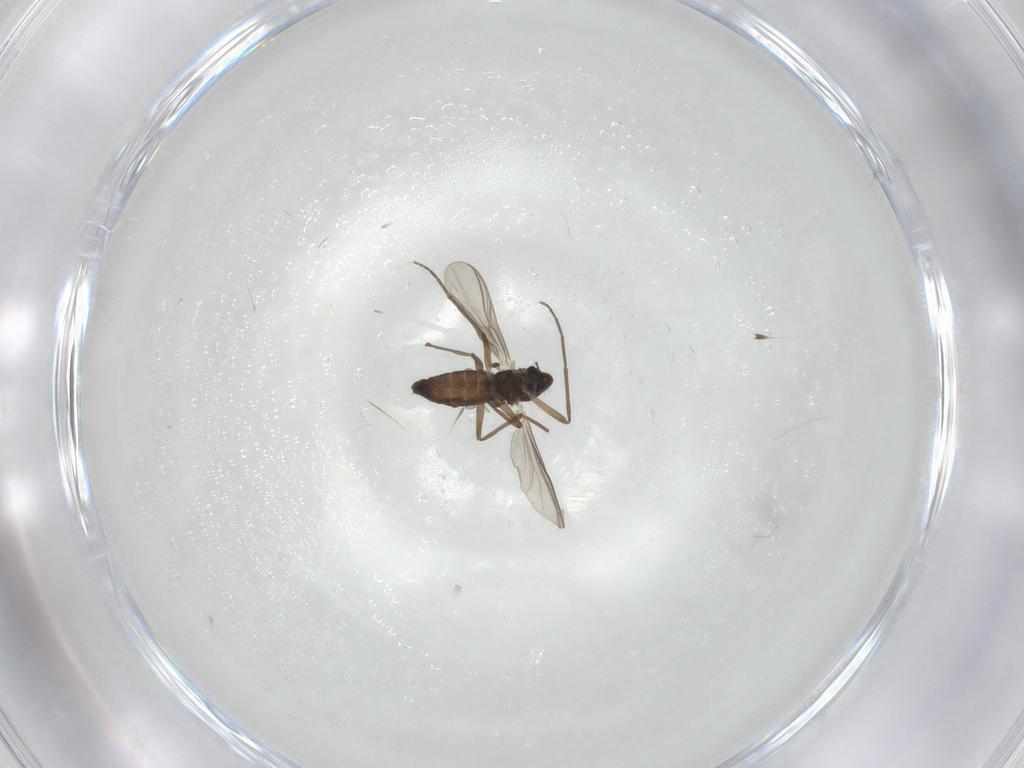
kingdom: Animalia
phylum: Arthropoda
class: Insecta
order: Diptera
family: Chironomidae
